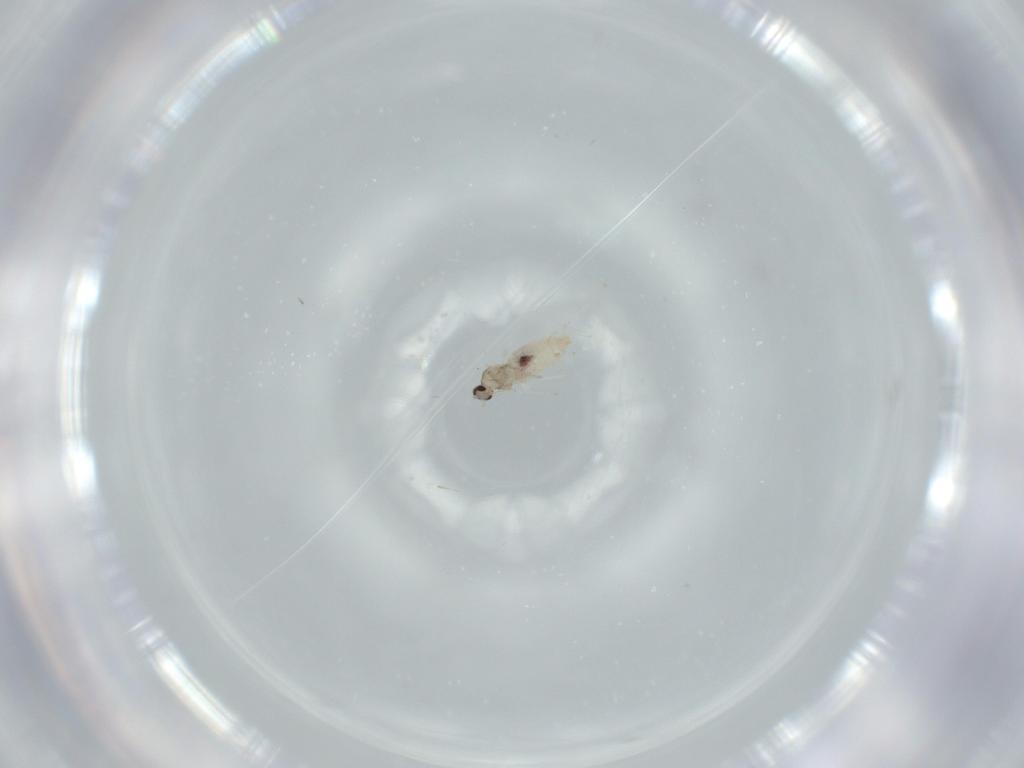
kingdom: Animalia
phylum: Arthropoda
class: Insecta
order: Diptera
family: Cecidomyiidae
